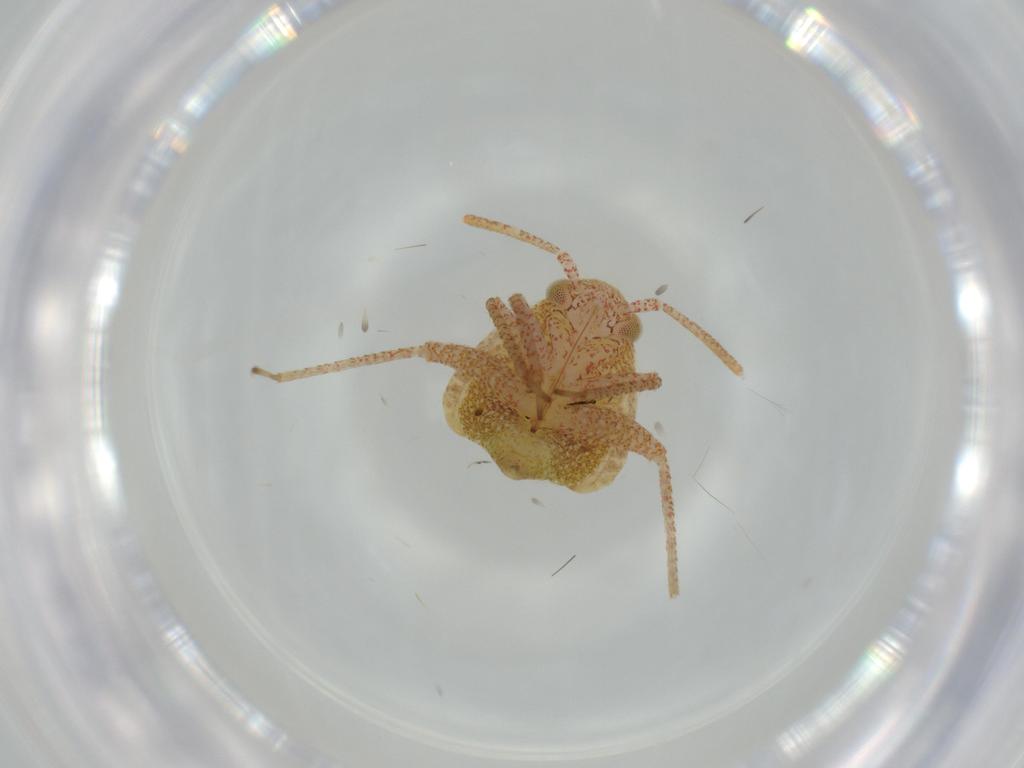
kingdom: Animalia
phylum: Arthropoda
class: Insecta
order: Hemiptera
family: Miridae
